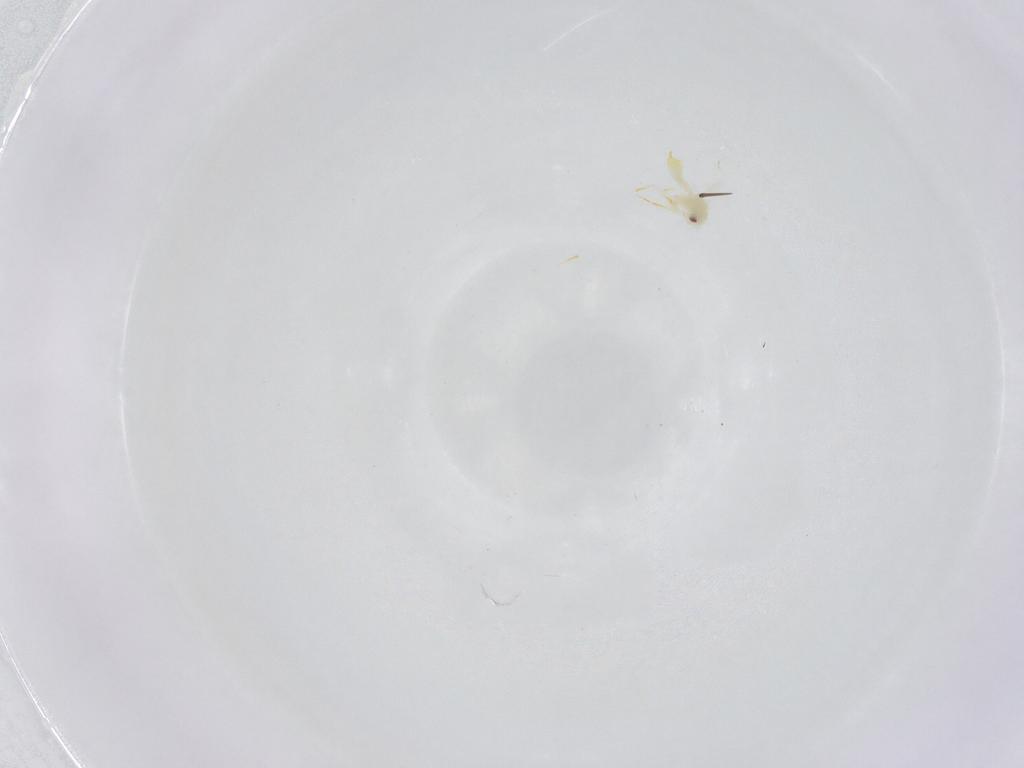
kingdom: Animalia
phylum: Arthropoda
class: Insecta
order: Hemiptera
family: Aleyrodidae
